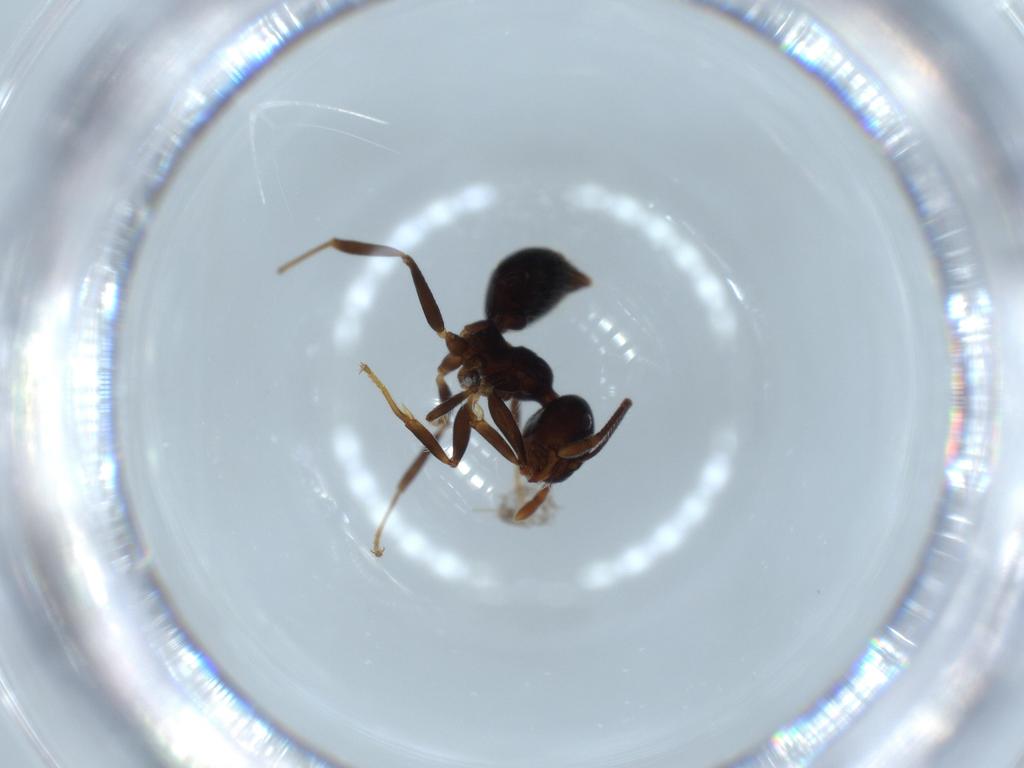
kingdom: Animalia
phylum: Arthropoda
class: Insecta
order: Hymenoptera
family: Formicidae
